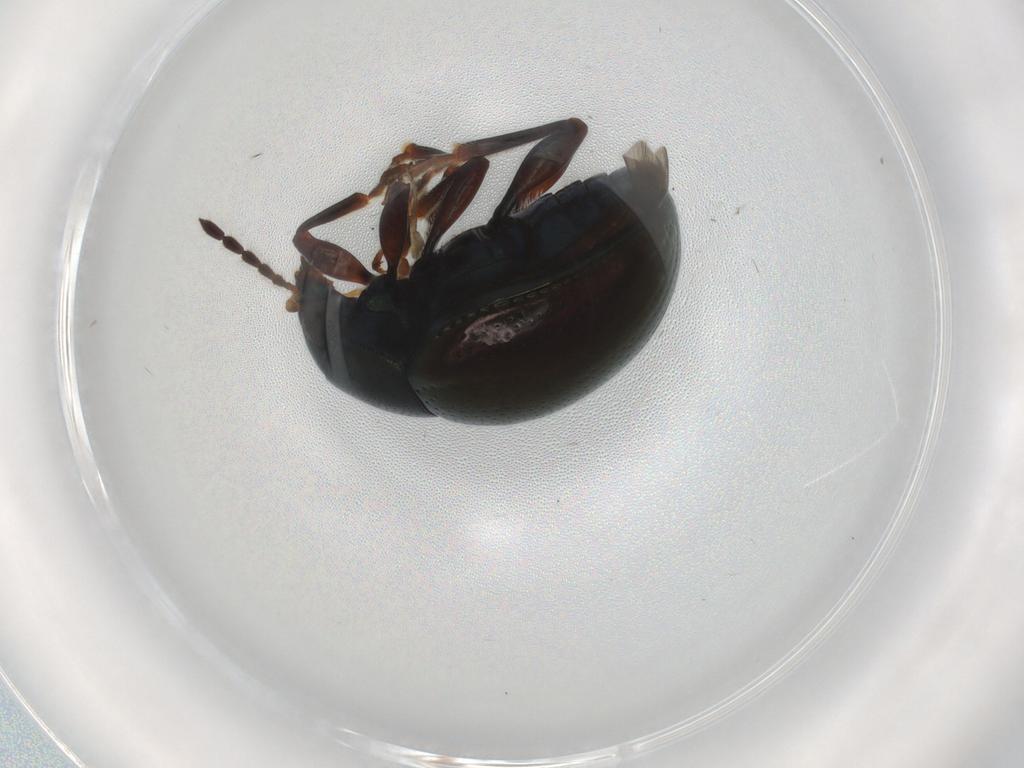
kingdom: Animalia
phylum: Arthropoda
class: Insecta
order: Coleoptera
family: Chrysomelidae
